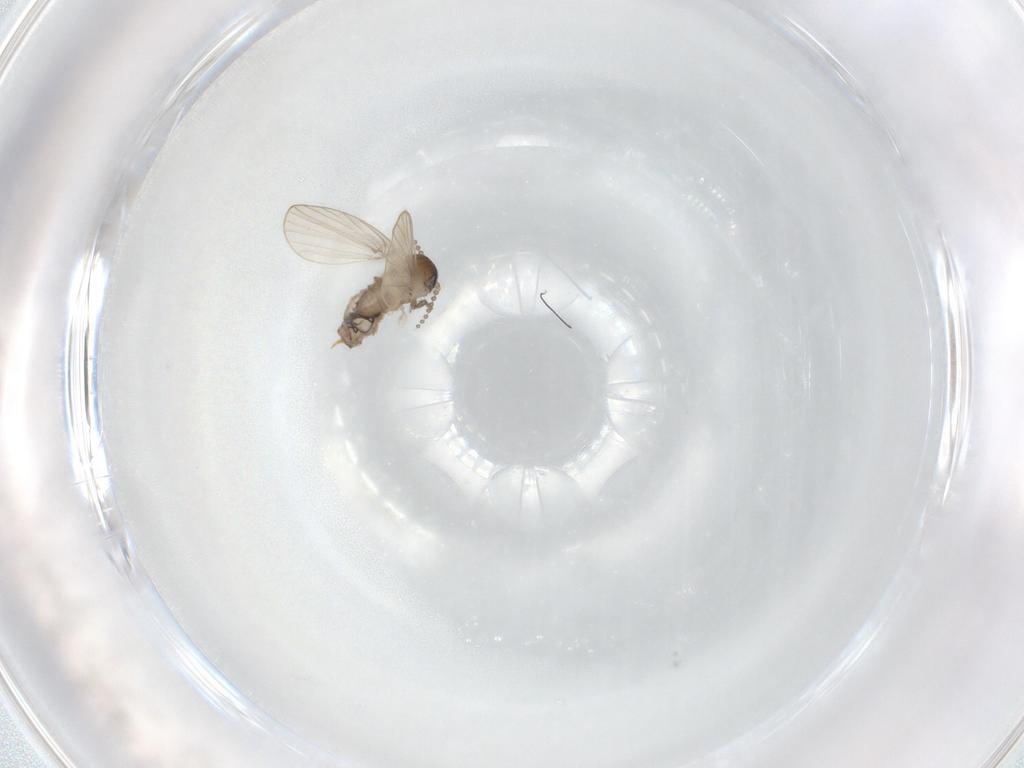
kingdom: Animalia
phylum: Arthropoda
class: Insecta
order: Diptera
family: Psychodidae
